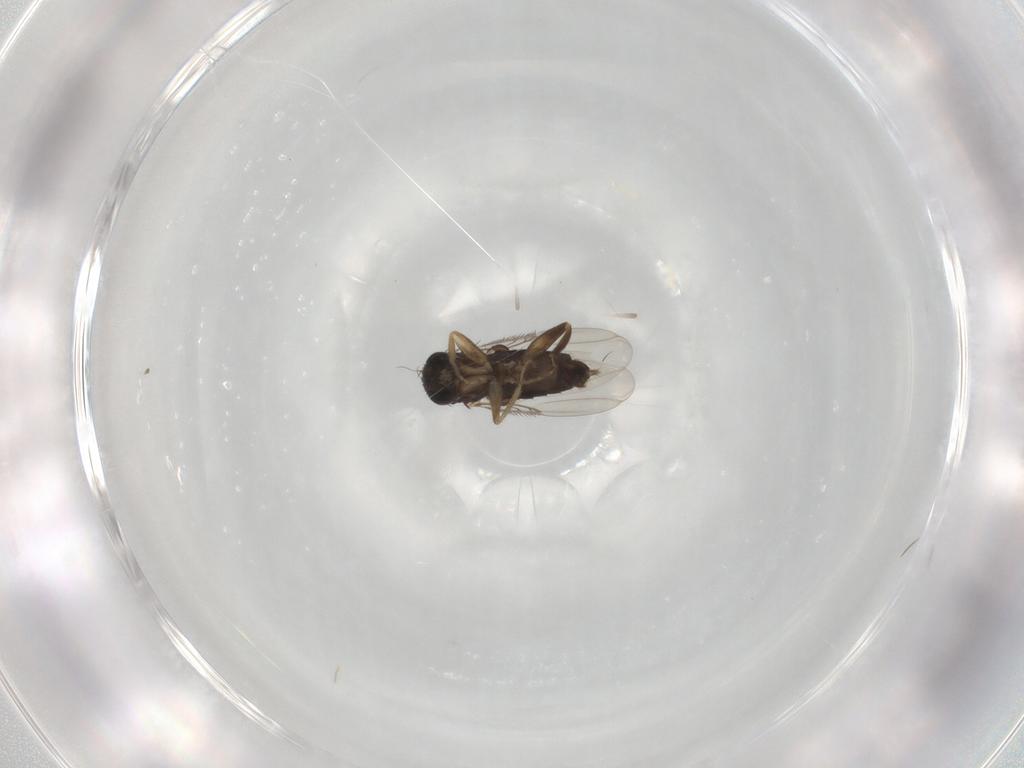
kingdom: Animalia
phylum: Arthropoda
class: Insecta
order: Diptera
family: Phoridae
